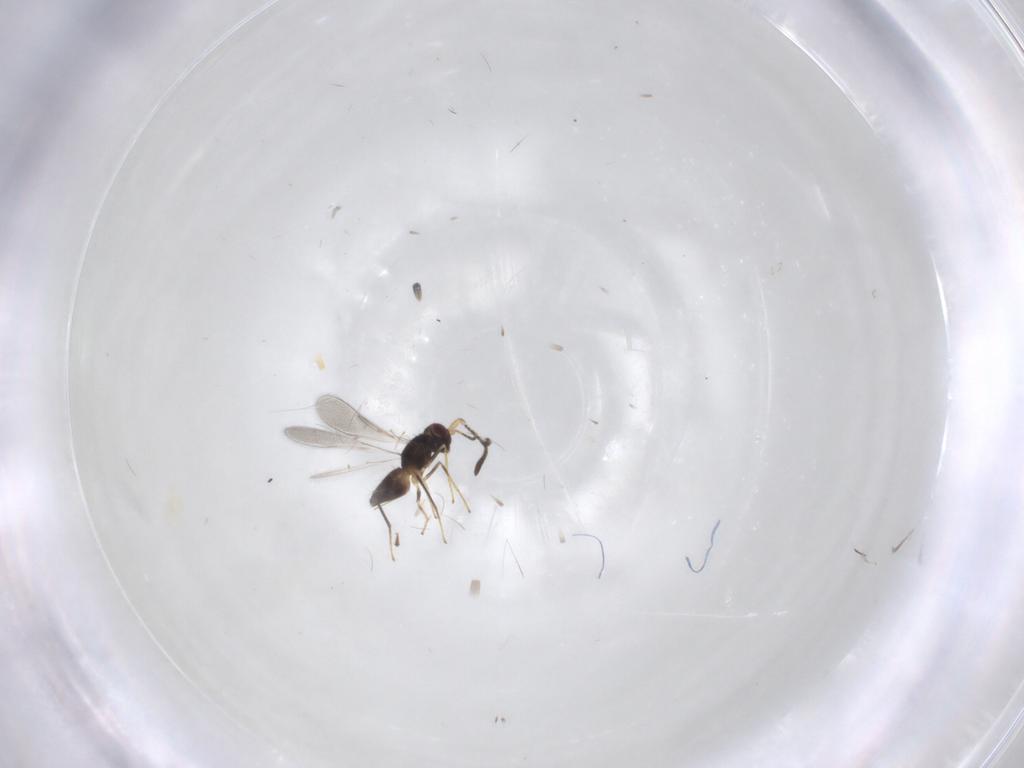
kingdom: Animalia
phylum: Arthropoda
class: Insecta
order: Hymenoptera
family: Mymaridae
